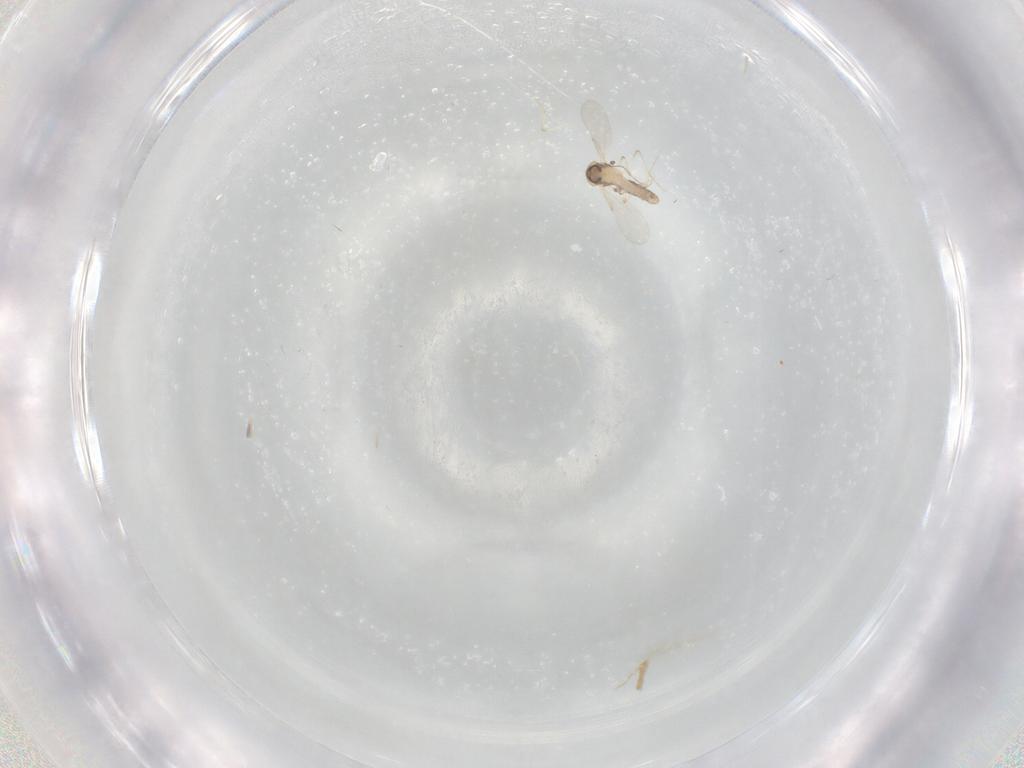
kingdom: Animalia
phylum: Arthropoda
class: Insecta
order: Diptera
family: Ceratopogonidae
